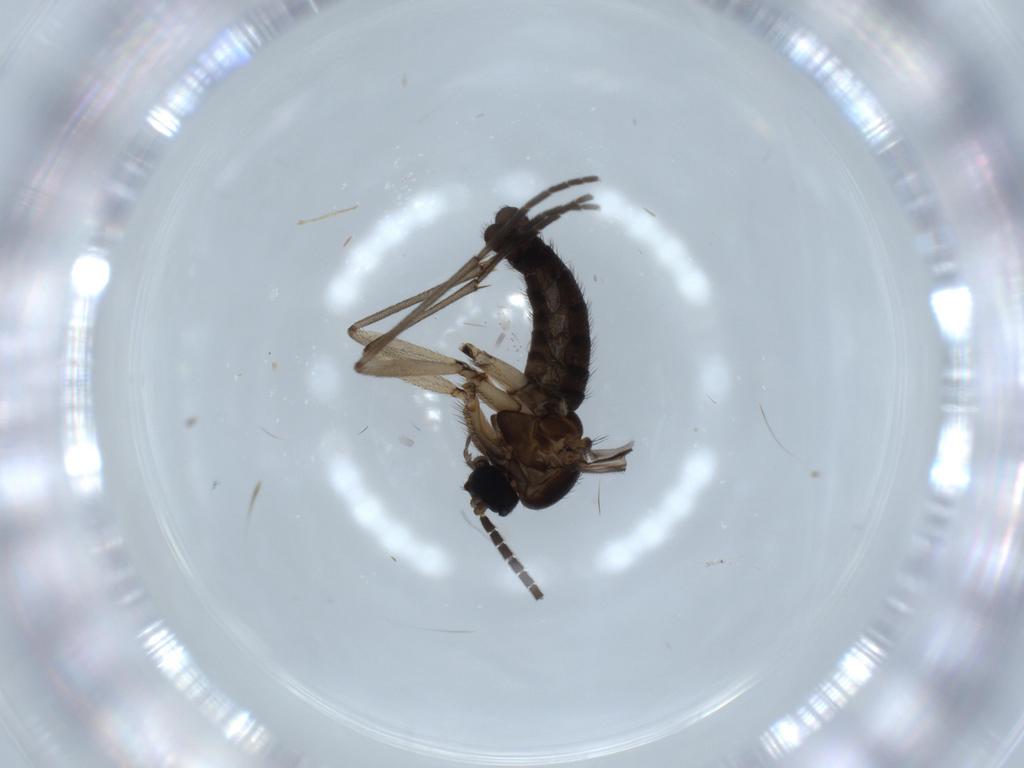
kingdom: Animalia
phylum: Arthropoda
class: Insecta
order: Diptera
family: Sciaridae
